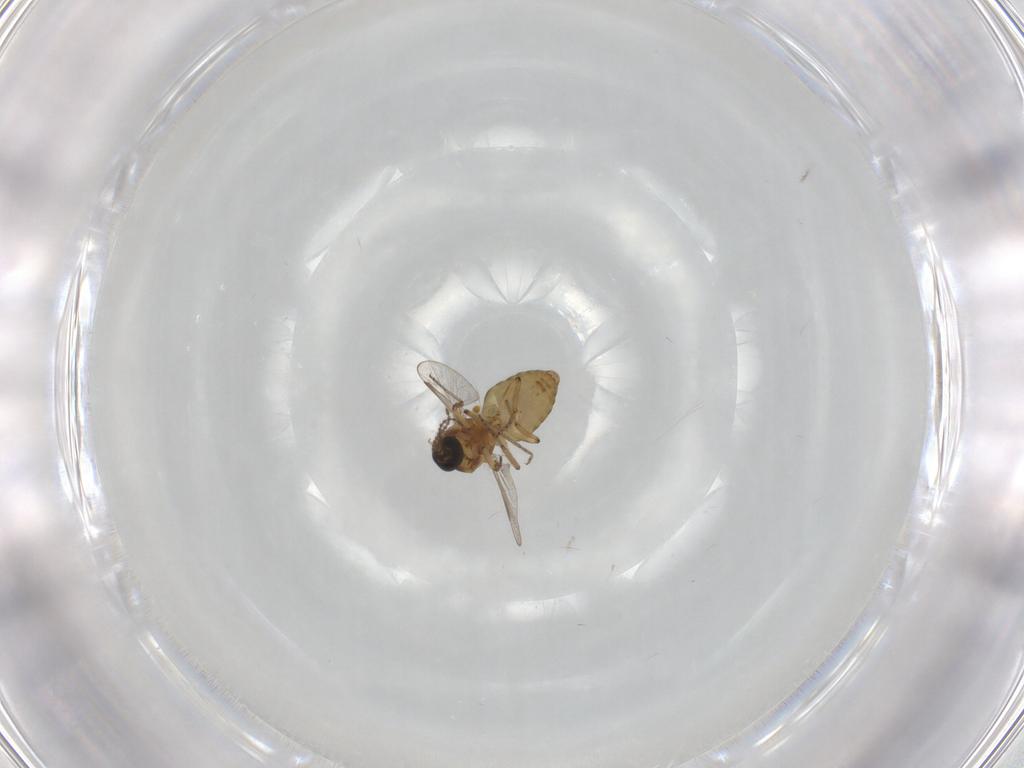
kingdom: Animalia
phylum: Arthropoda
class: Insecta
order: Diptera
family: Ceratopogonidae
